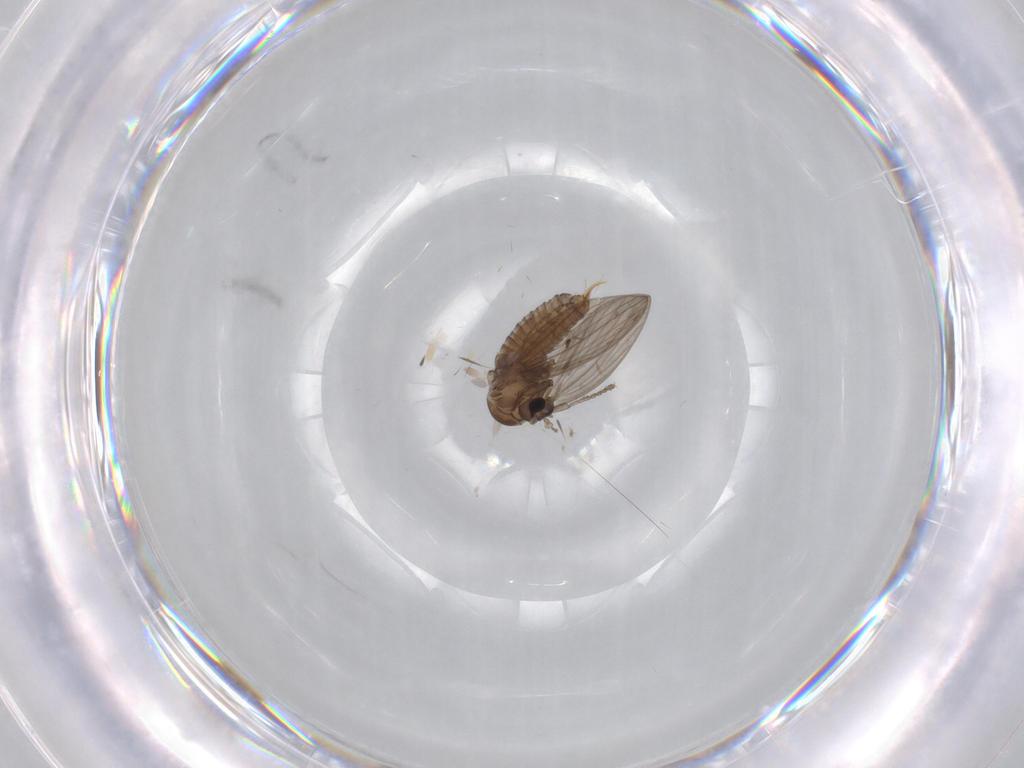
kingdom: Animalia
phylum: Arthropoda
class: Insecta
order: Diptera
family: Psychodidae
